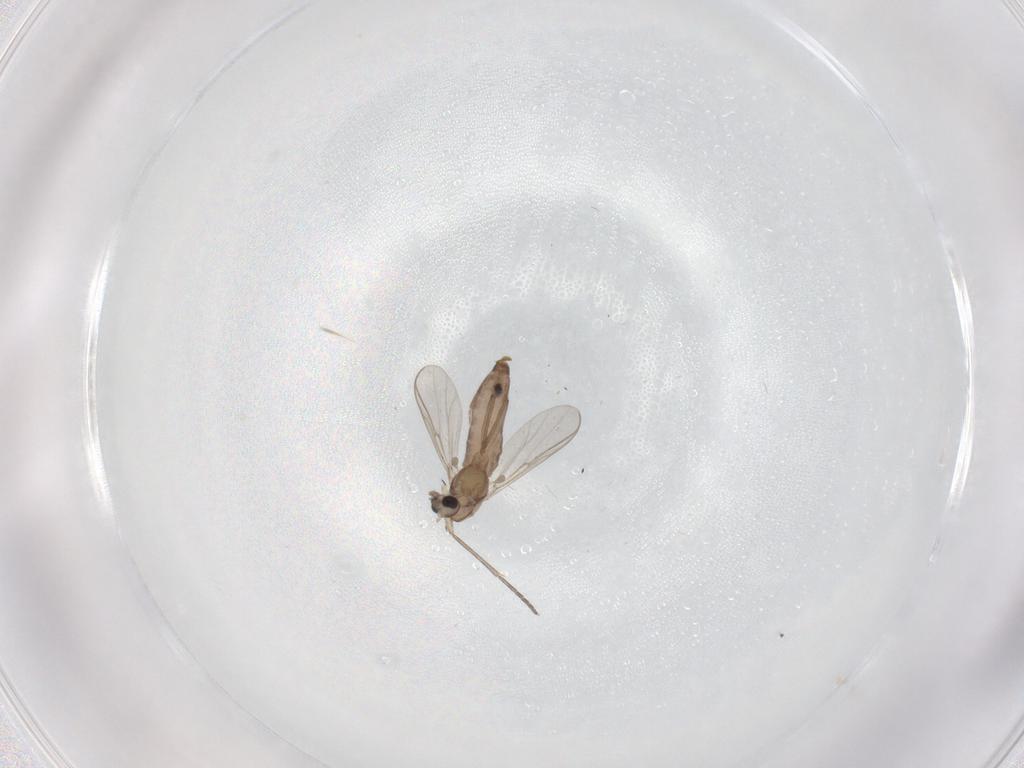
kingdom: Animalia
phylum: Arthropoda
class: Insecta
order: Diptera
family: Chironomidae
